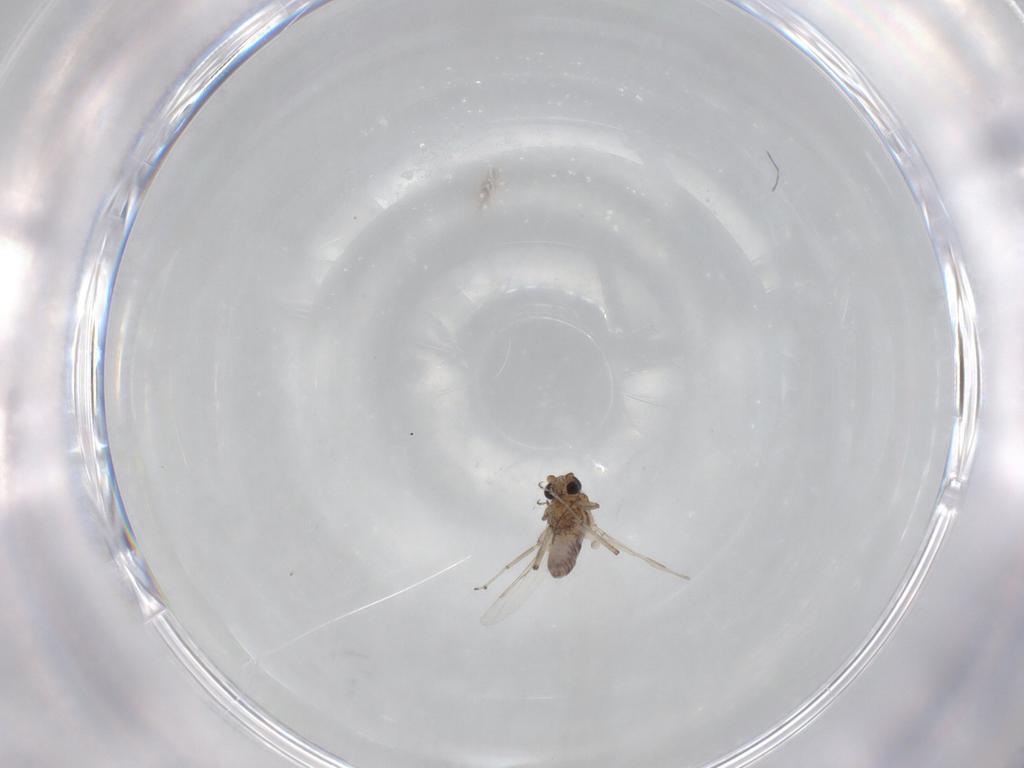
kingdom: Animalia
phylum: Arthropoda
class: Insecta
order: Diptera
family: Ceratopogonidae
